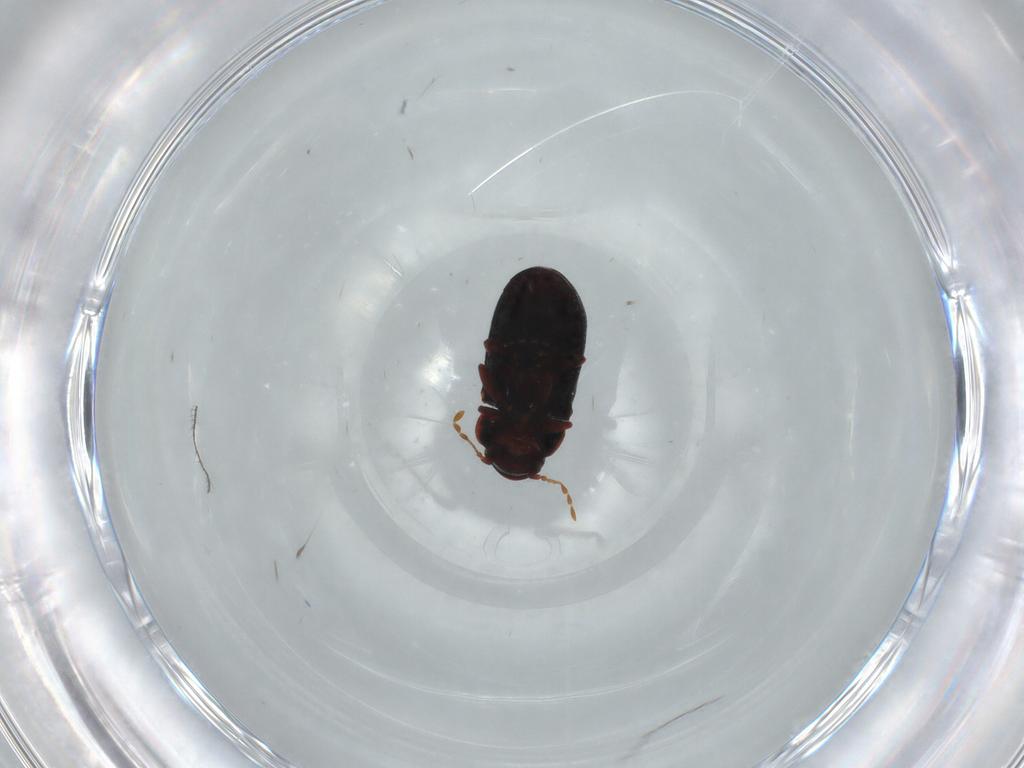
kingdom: Animalia
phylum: Arthropoda
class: Insecta
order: Coleoptera
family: Ptinidae
